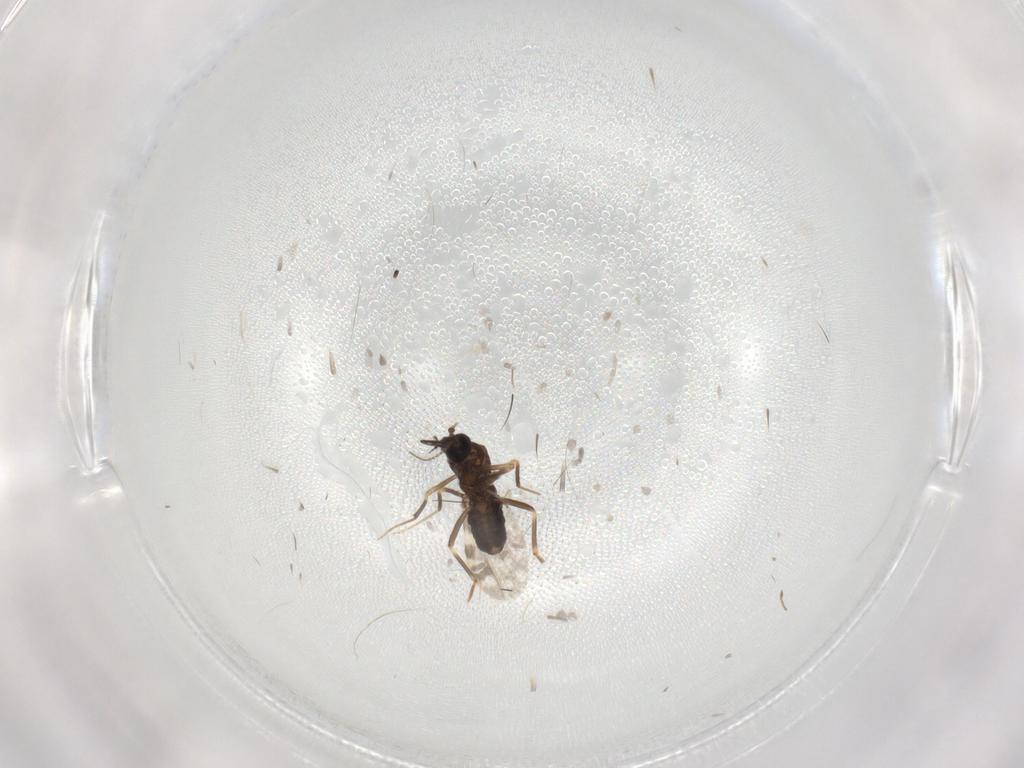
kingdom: Animalia
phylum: Arthropoda
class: Insecta
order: Diptera
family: Ceratopogonidae
